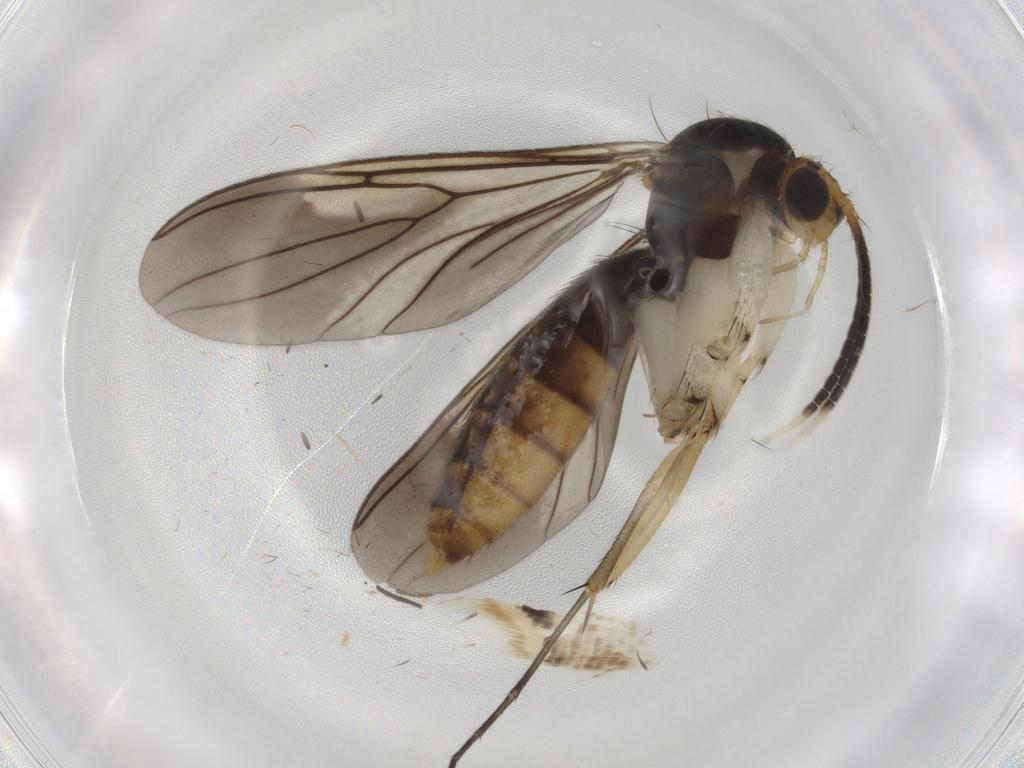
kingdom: Animalia
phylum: Arthropoda
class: Insecta
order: Diptera
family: Mycetophilidae
